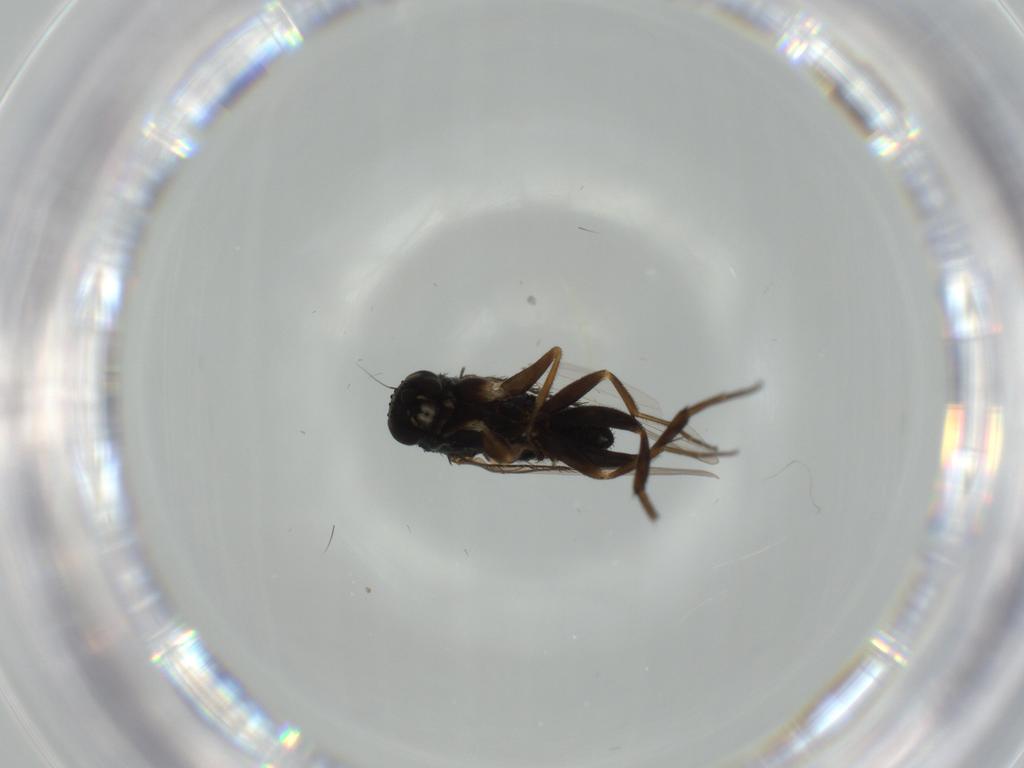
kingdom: Animalia
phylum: Arthropoda
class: Insecta
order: Diptera
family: Phoridae
